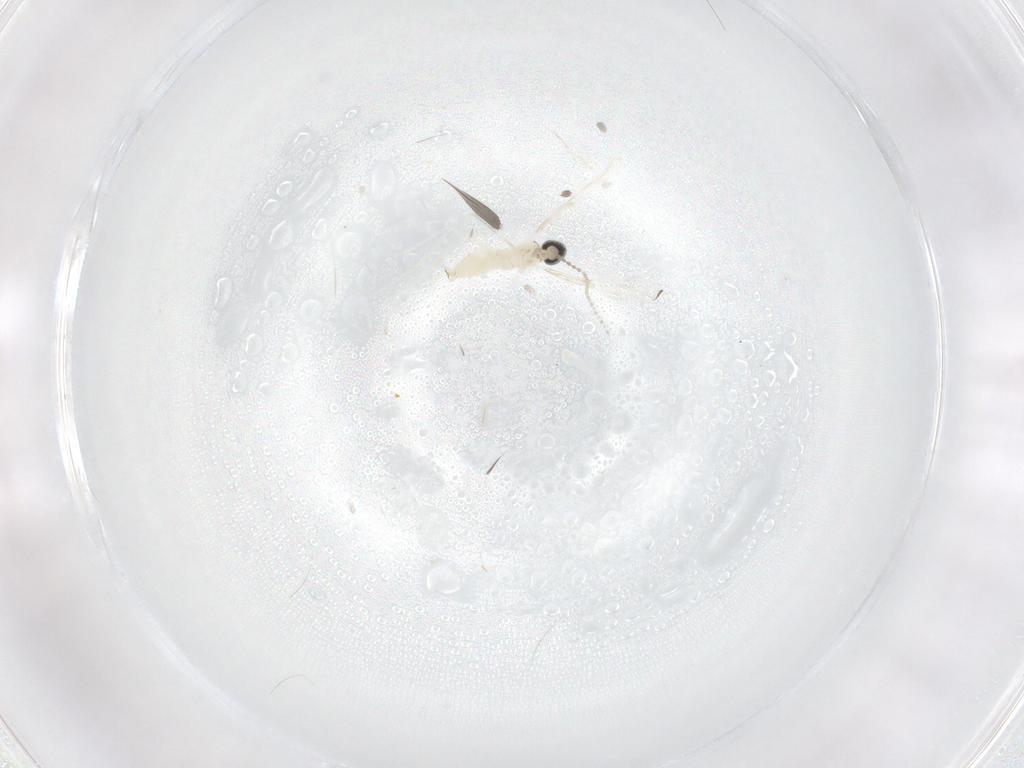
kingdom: Animalia
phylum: Arthropoda
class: Insecta
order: Diptera
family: Cecidomyiidae
